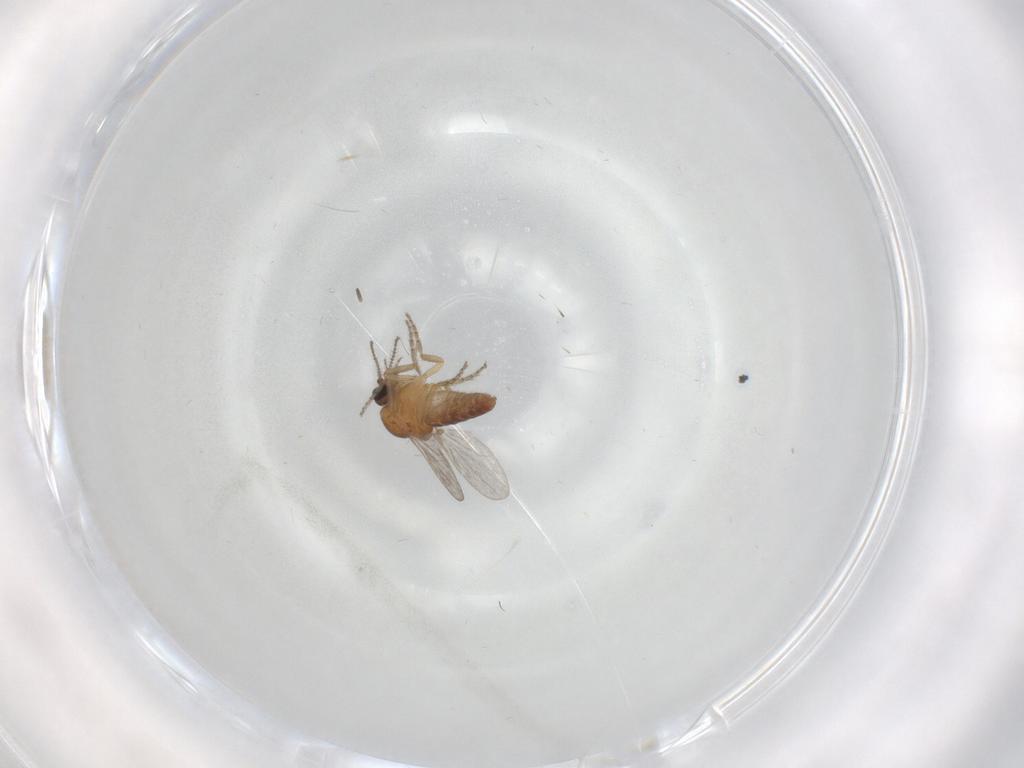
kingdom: Animalia
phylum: Arthropoda
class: Insecta
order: Diptera
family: Ceratopogonidae
